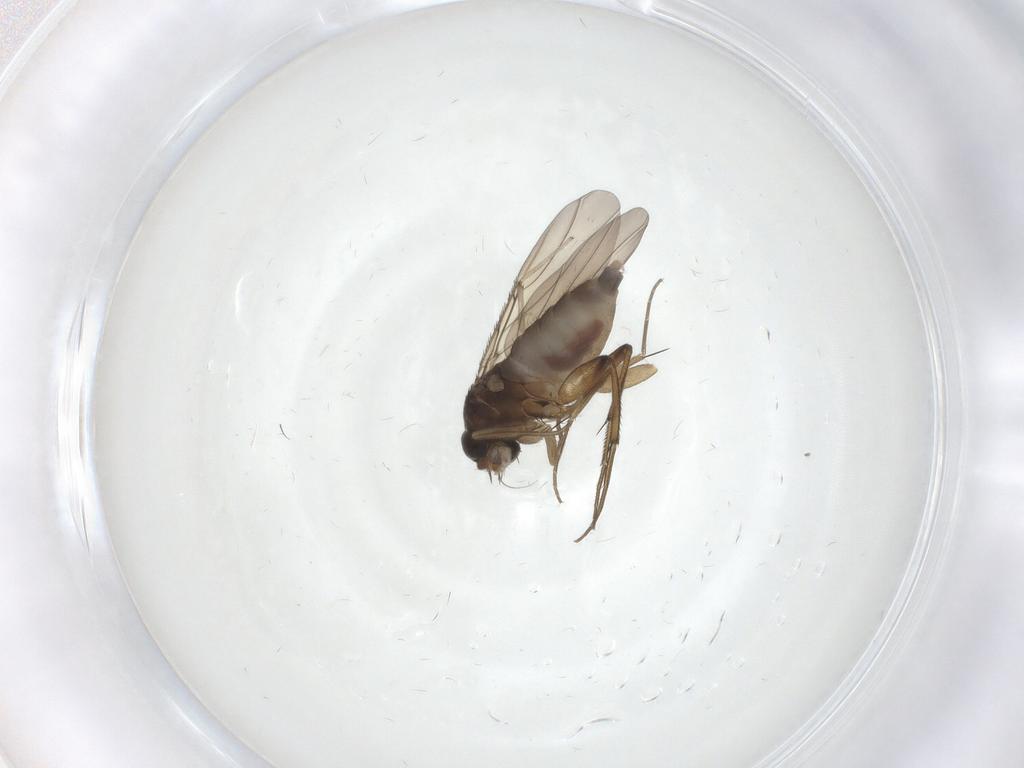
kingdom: Animalia
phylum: Arthropoda
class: Insecta
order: Diptera
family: Phoridae
